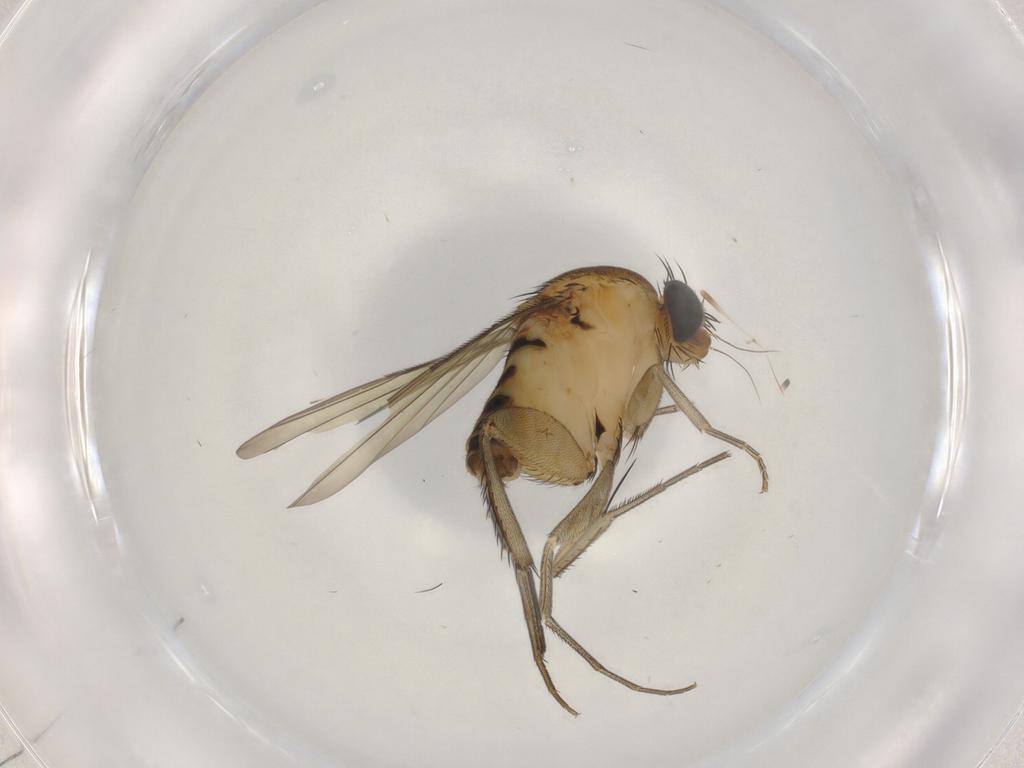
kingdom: Animalia
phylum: Arthropoda
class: Insecta
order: Diptera
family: Phoridae
